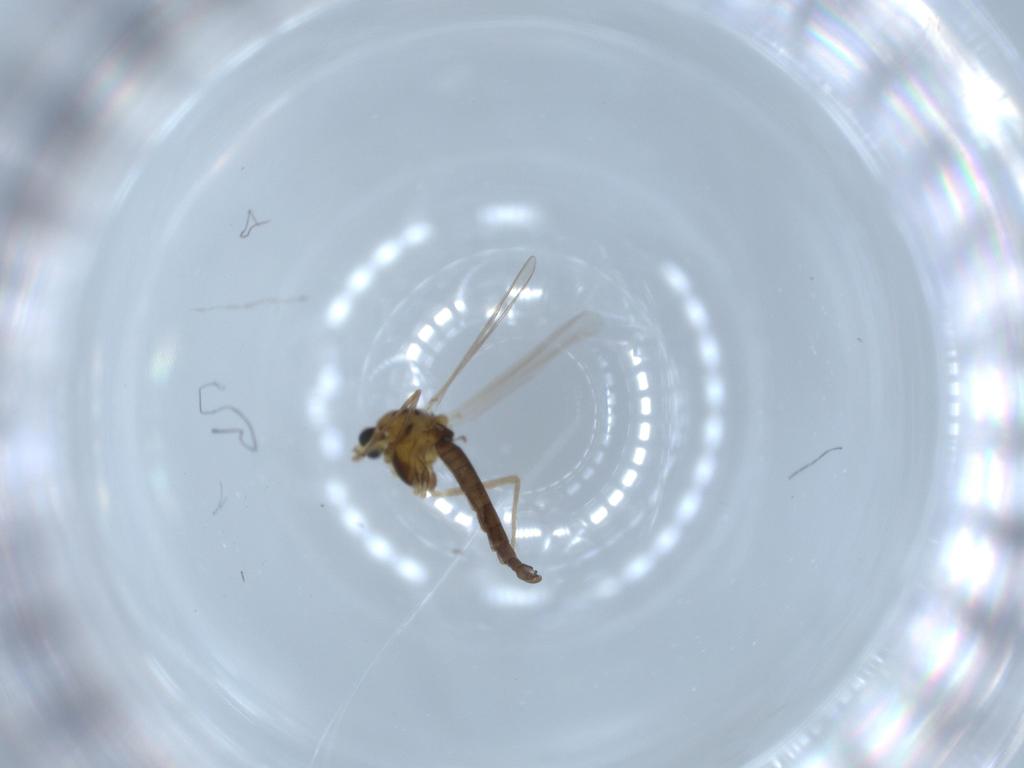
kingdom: Animalia
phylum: Arthropoda
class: Insecta
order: Diptera
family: Chironomidae
